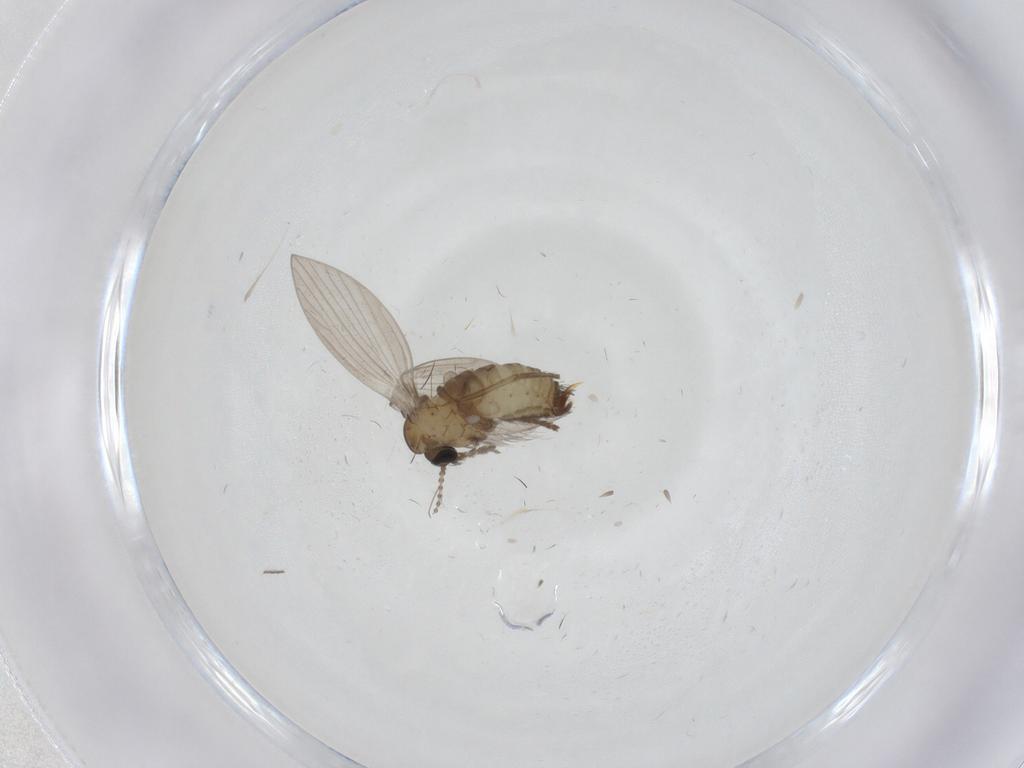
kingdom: Animalia
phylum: Arthropoda
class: Insecta
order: Diptera
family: Psychodidae
